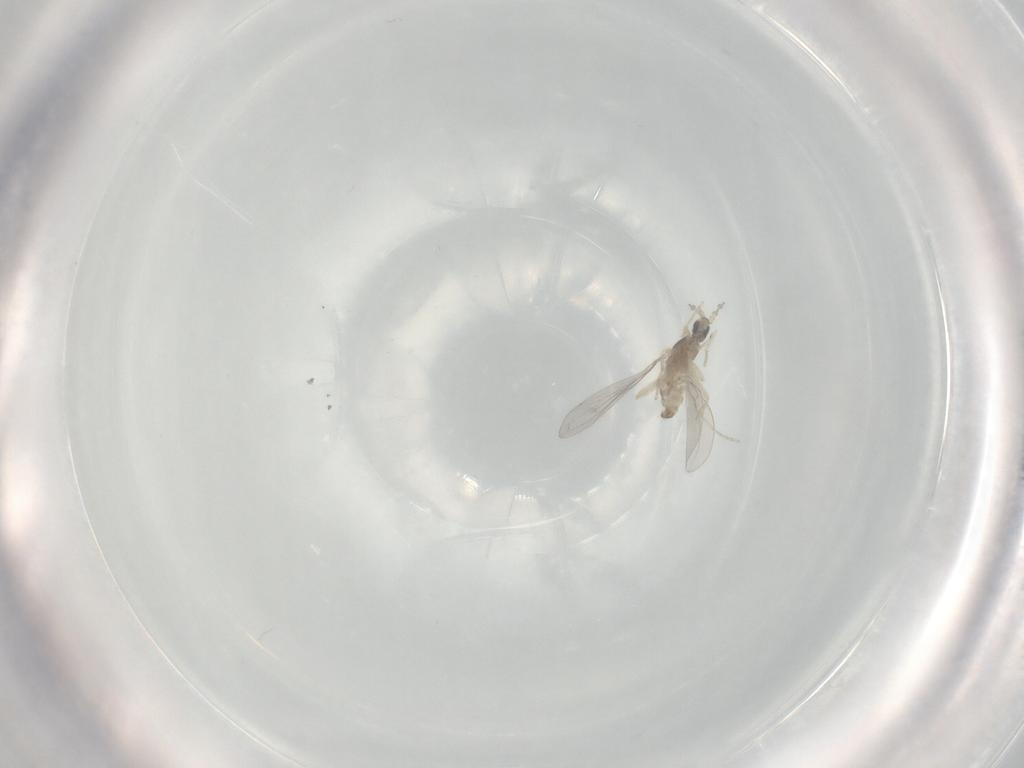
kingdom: Animalia
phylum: Arthropoda
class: Insecta
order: Diptera
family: Cecidomyiidae
